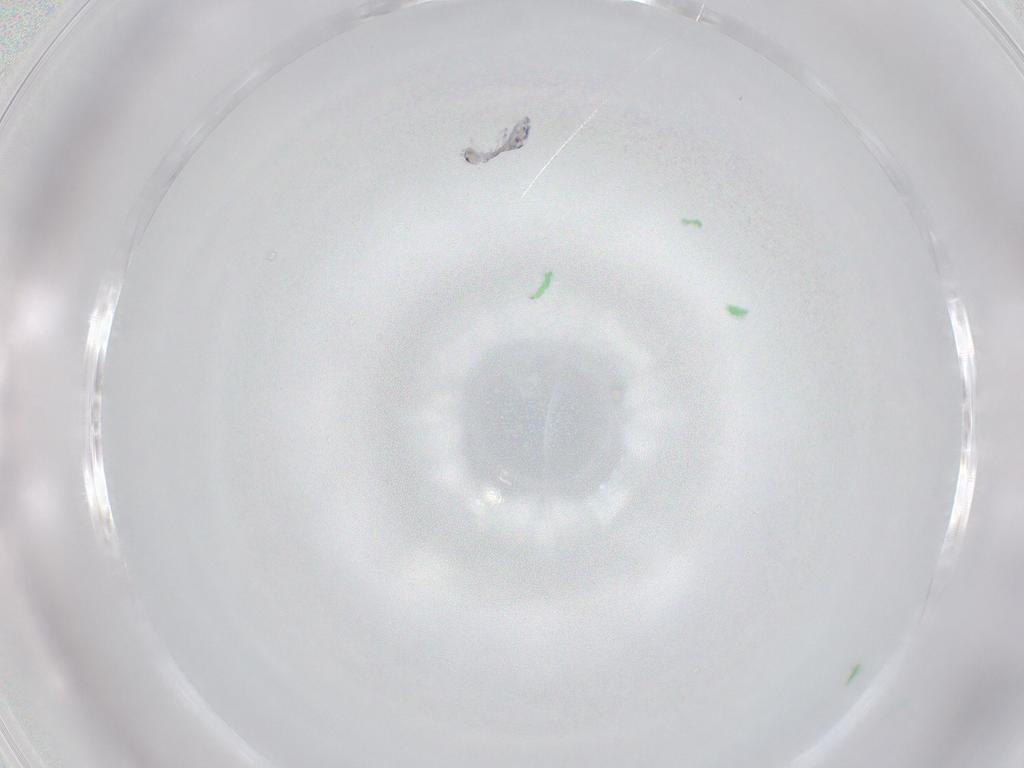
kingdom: Animalia
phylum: Arthropoda
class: Collembola
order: Entomobryomorpha
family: Entomobryidae
